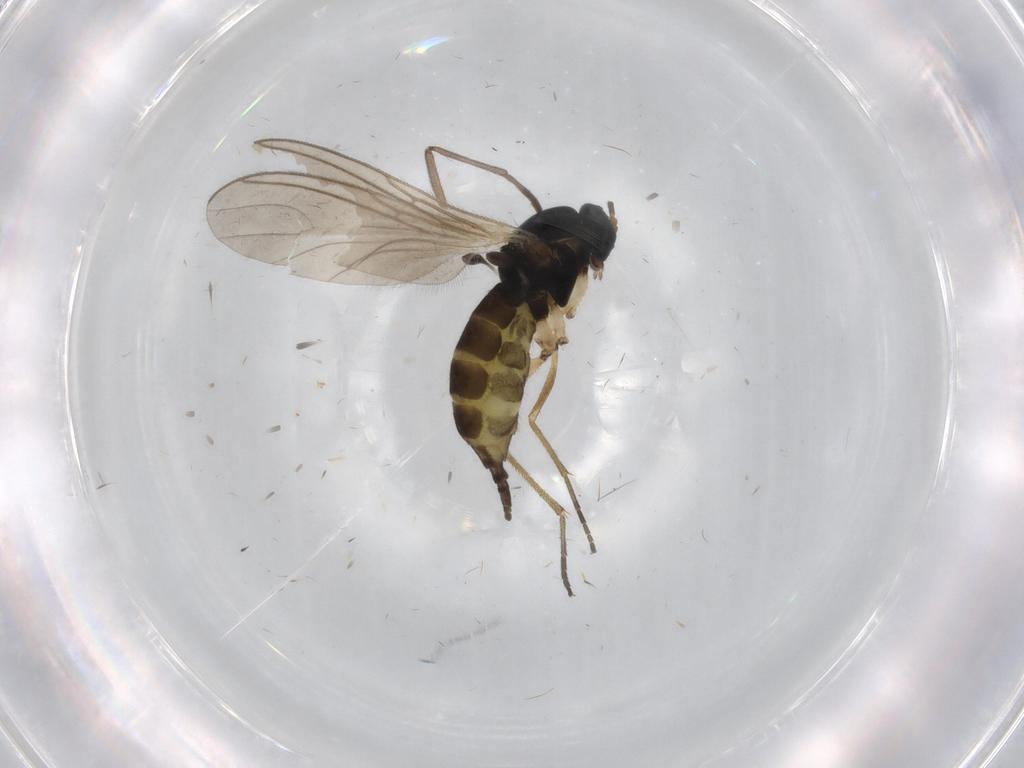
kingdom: Animalia
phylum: Arthropoda
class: Insecta
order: Diptera
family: Sciaridae
